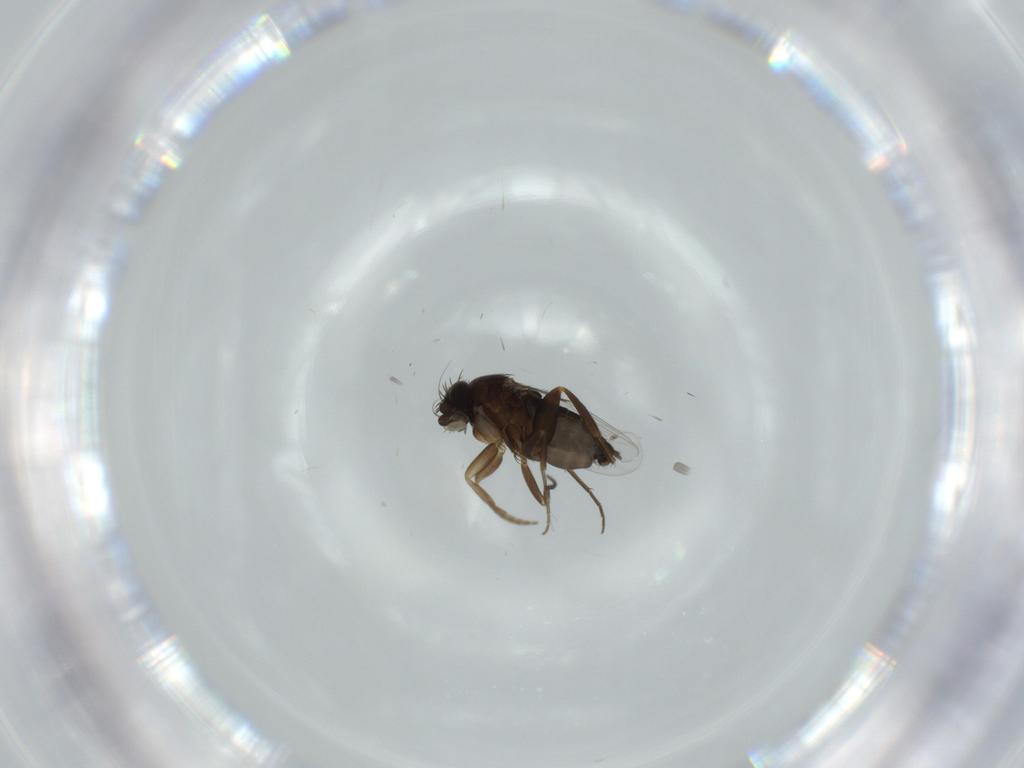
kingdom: Animalia
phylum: Arthropoda
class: Insecta
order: Diptera
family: Phoridae
